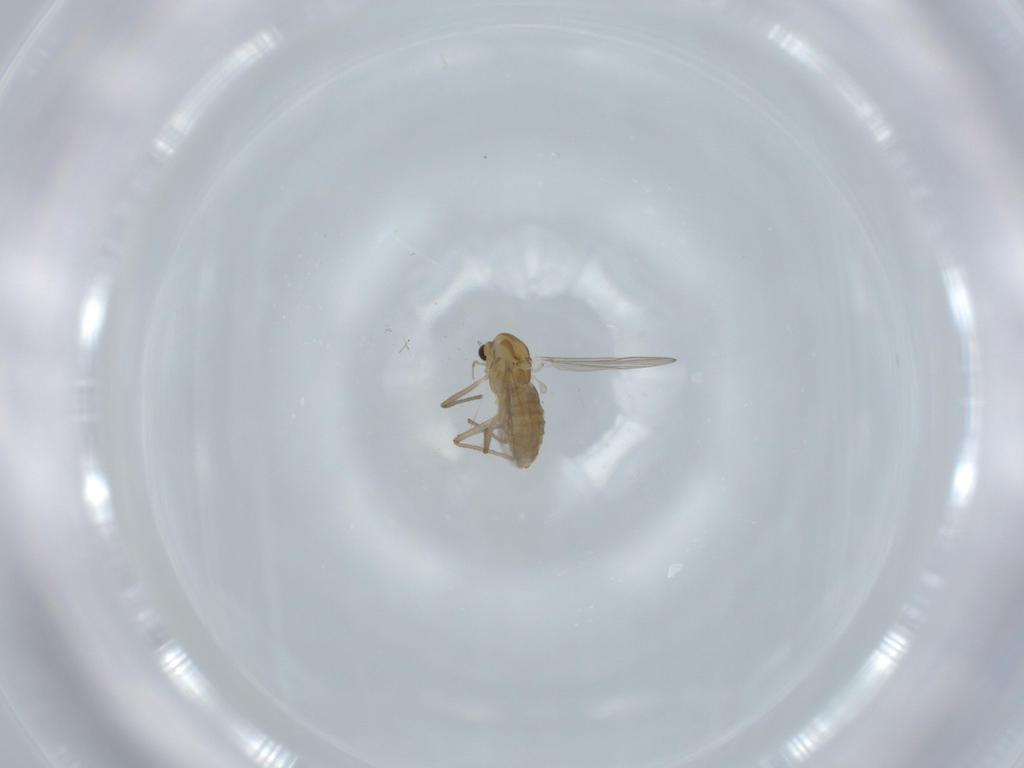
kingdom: Animalia
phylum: Arthropoda
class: Insecta
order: Diptera
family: Chironomidae
